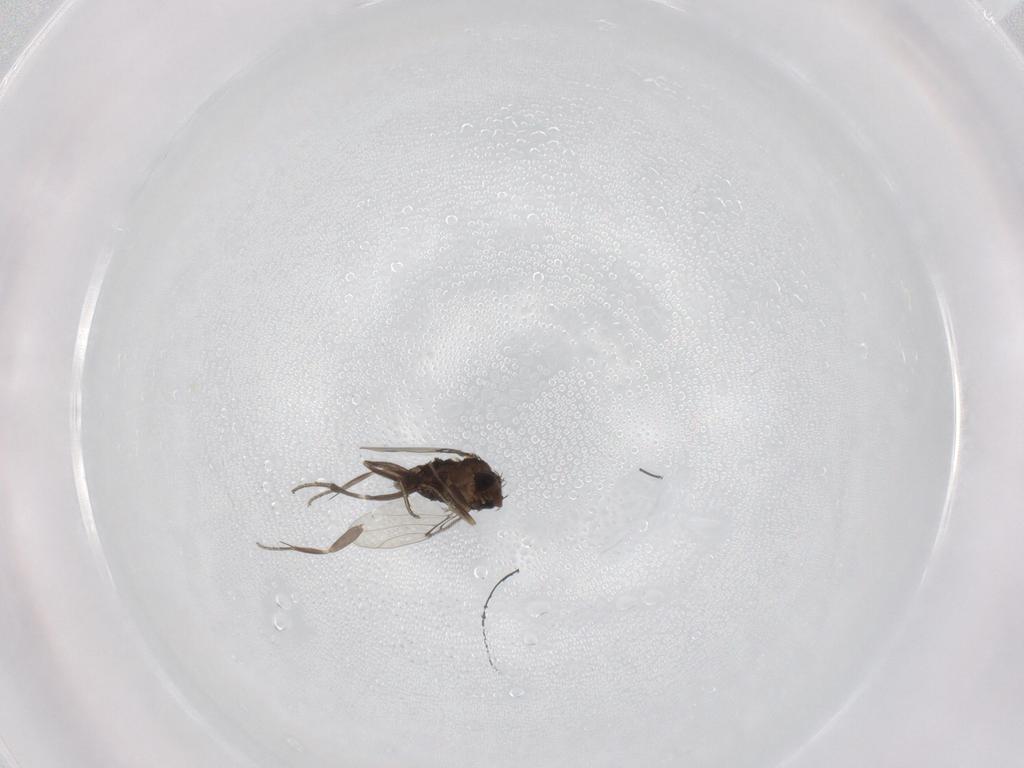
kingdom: Animalia
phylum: Arthropoda
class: Insecta
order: Diptera
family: Phoridae
